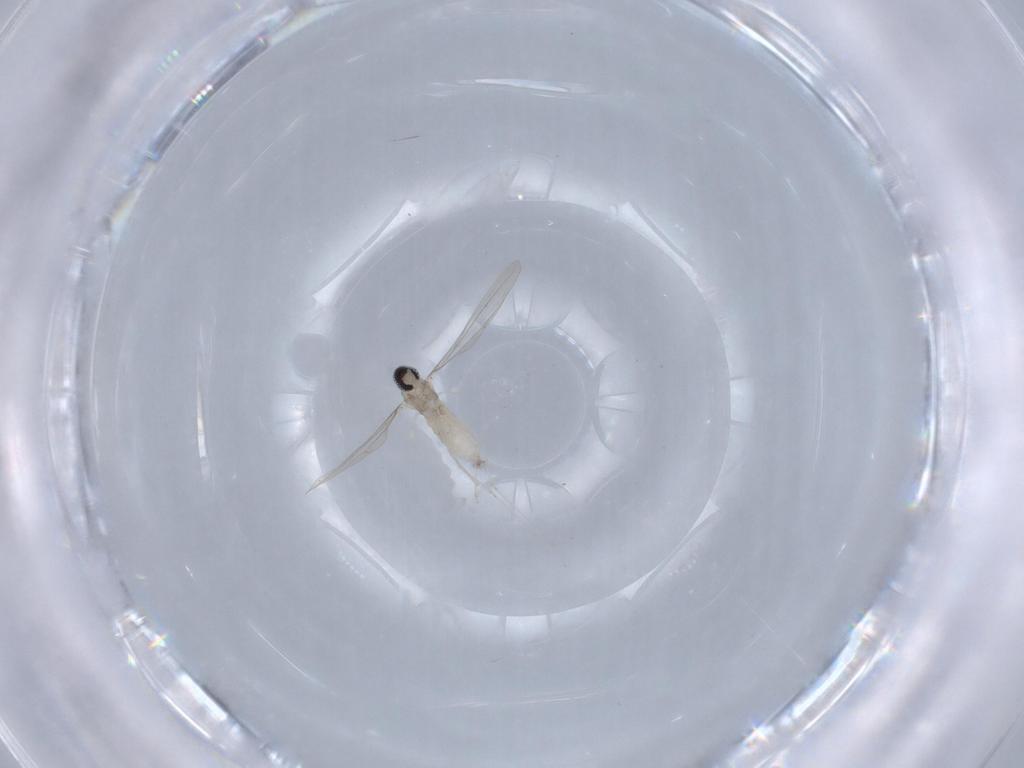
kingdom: Animalia
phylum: Arthropoda
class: Insecta
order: Diptera
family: Cecidomyiidae
